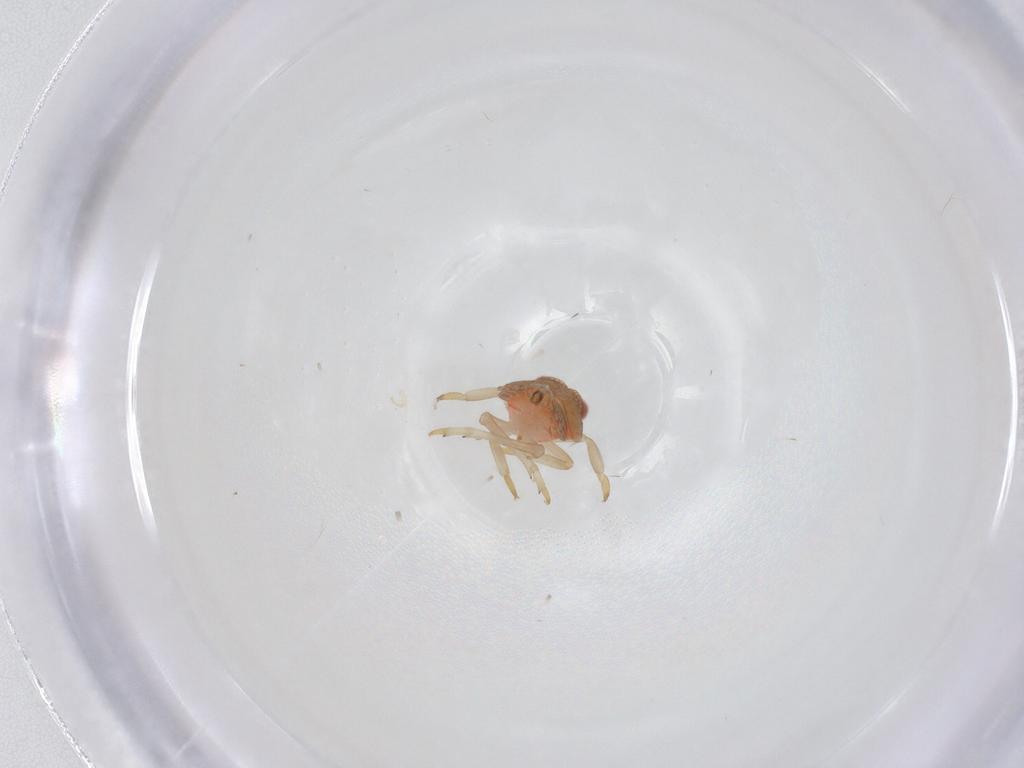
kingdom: Animalia
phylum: Arthropoda
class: Insecta
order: Hemiptera
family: Fulgoroidea_incertae_sedis
